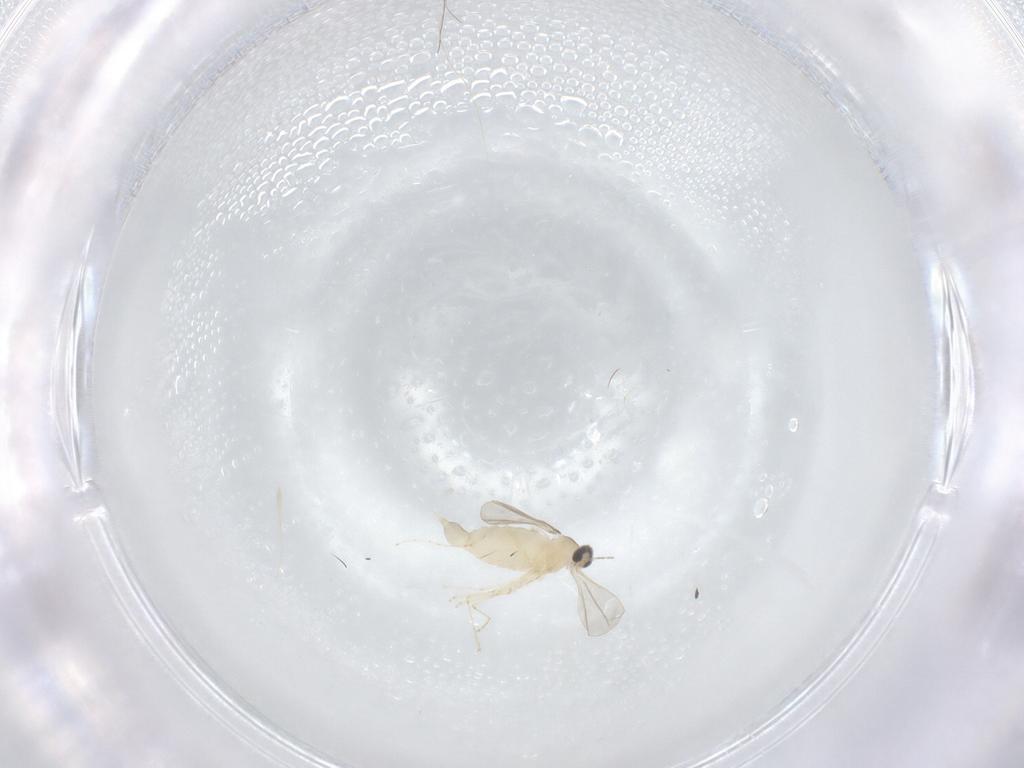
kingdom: Animalia
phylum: Arthropoda
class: Insecta
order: Diptera
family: Cecidomyiidae
